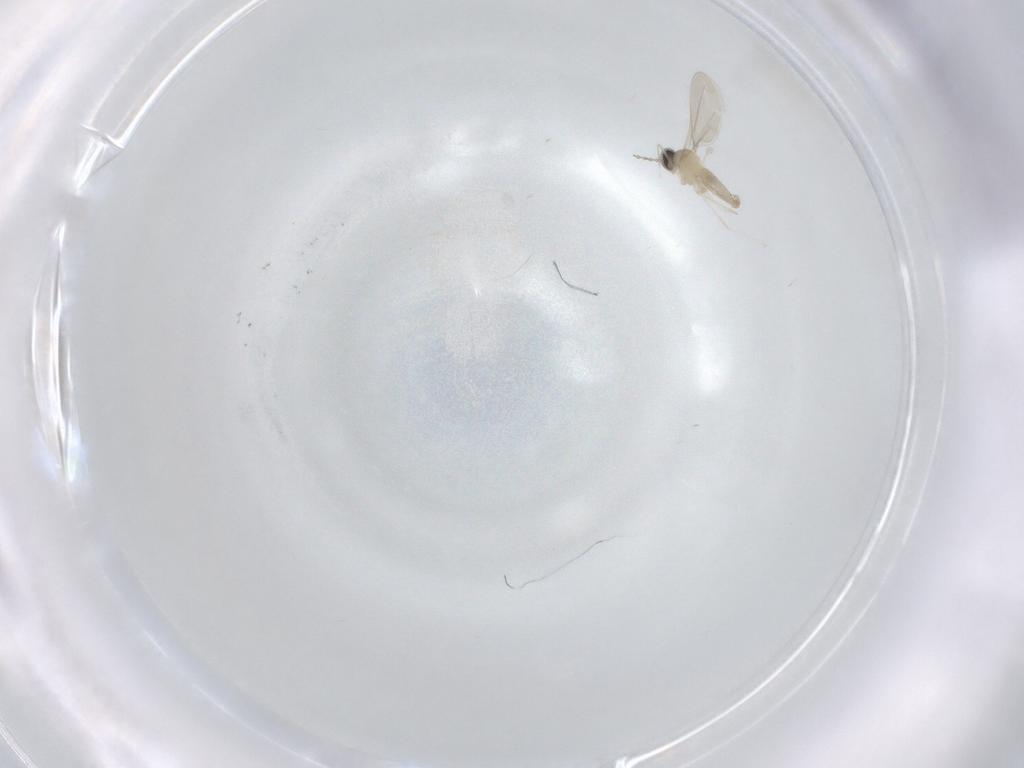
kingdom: Animalia
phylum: Arthropoda
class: Insecta
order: Diptera
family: Cecidomyiidae
